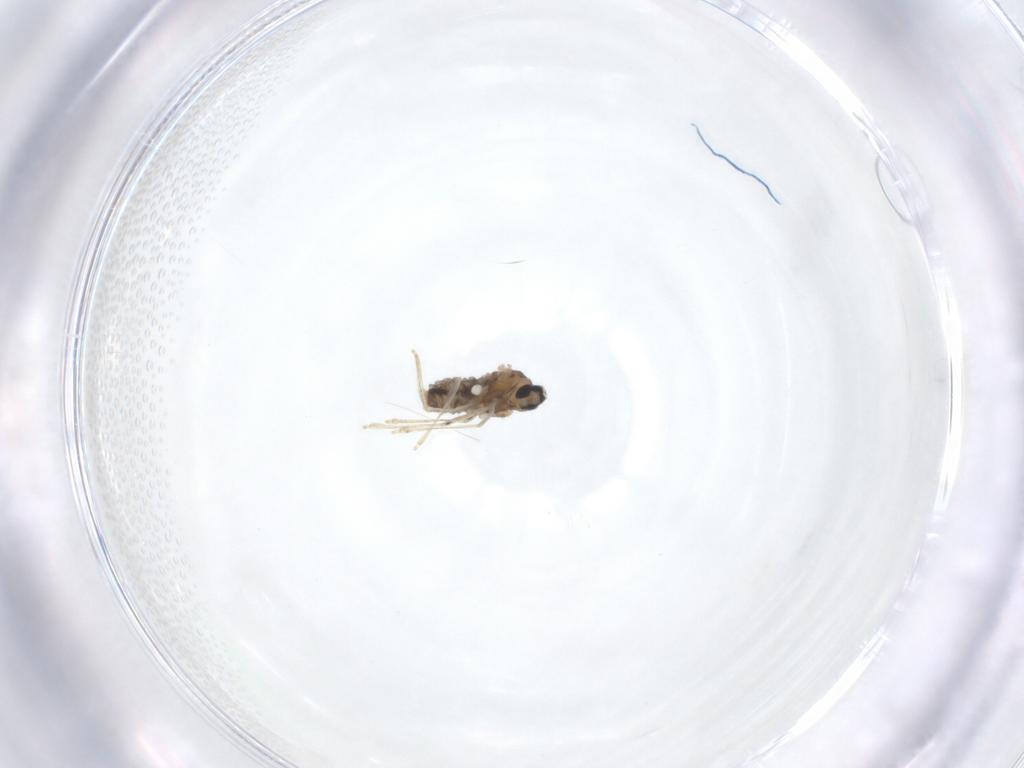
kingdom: Animalia
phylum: Arthropoda
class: Insecta
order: Diptera
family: Cecidomyiidae
